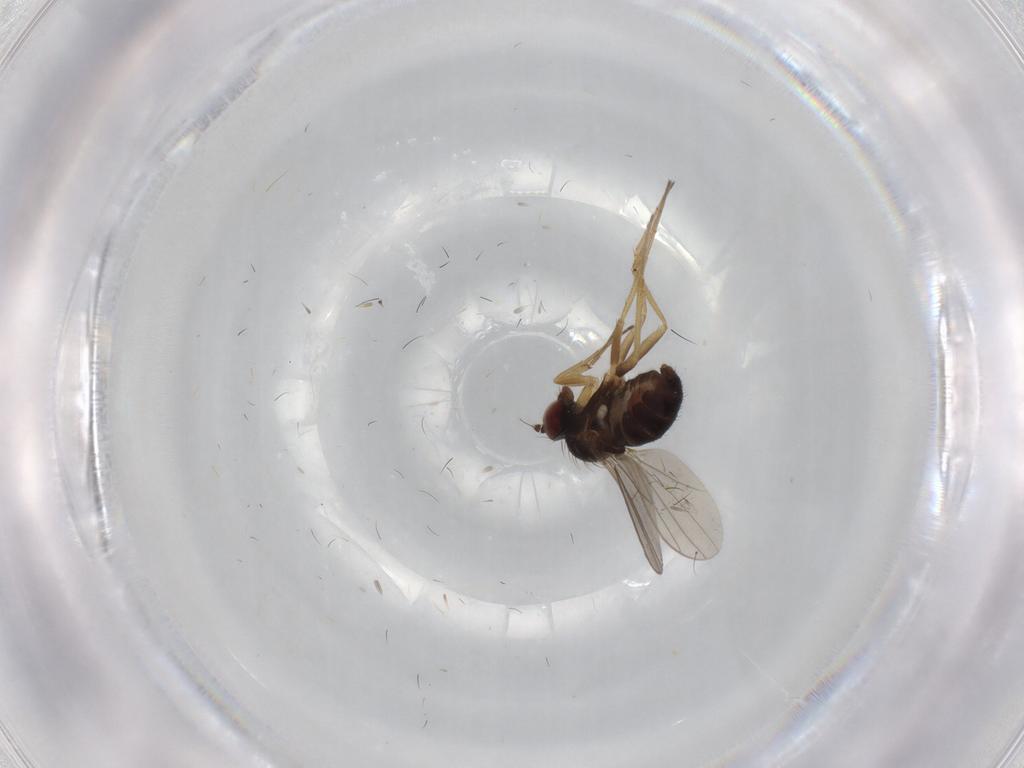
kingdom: Animalia
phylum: Arthropoda
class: Insecta
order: Diptera
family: Dolichopodidae
